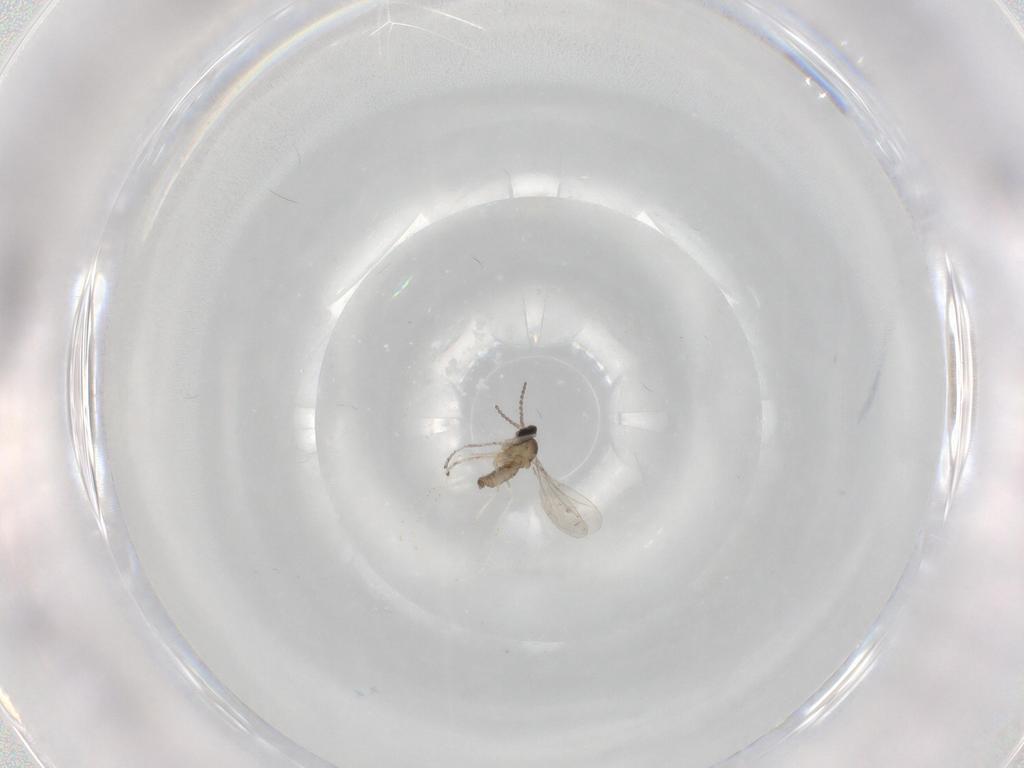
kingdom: Animalia
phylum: Arthropoda
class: Insecta
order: Diptera
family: Cecidomyiidae
